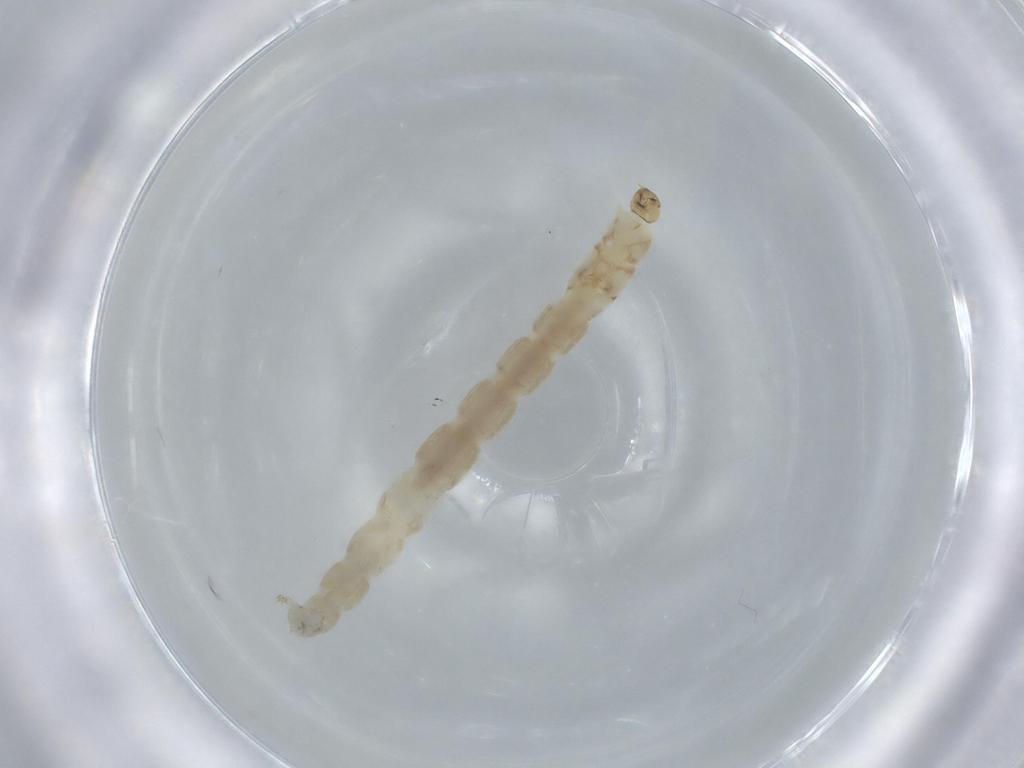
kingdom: Animalia
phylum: Arthropoda
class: Insecta
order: Diptera
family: Chironomidae
